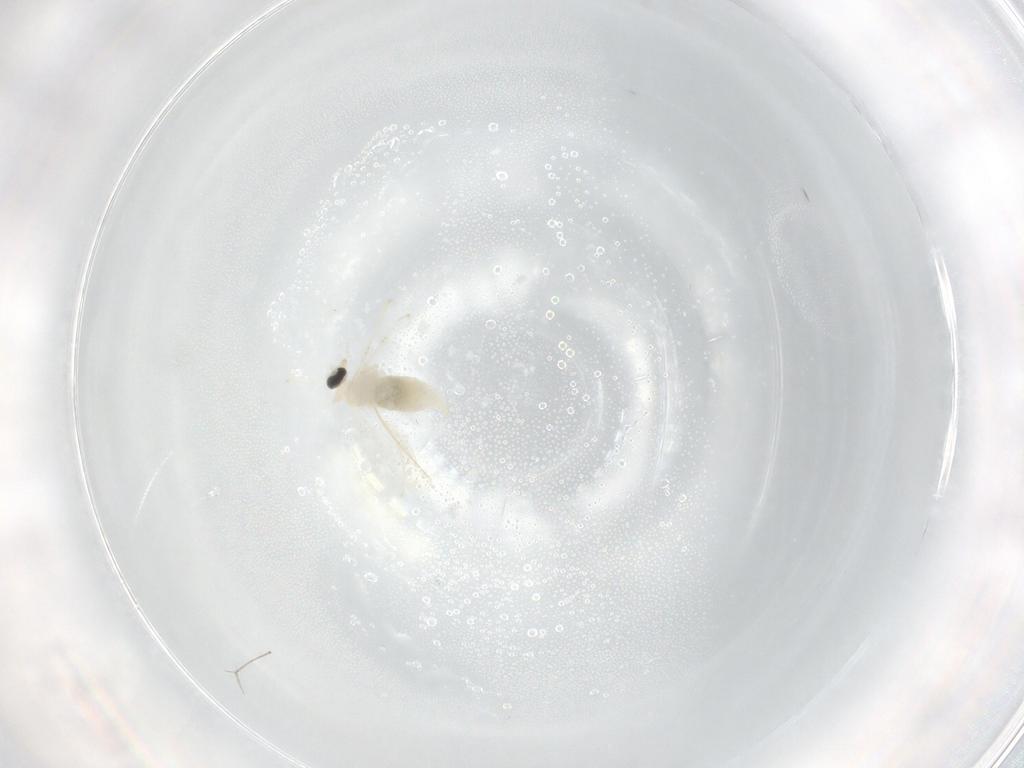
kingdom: Animalia
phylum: Arthropoda
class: Insecta
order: Diptera
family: Cecidomyiidae
